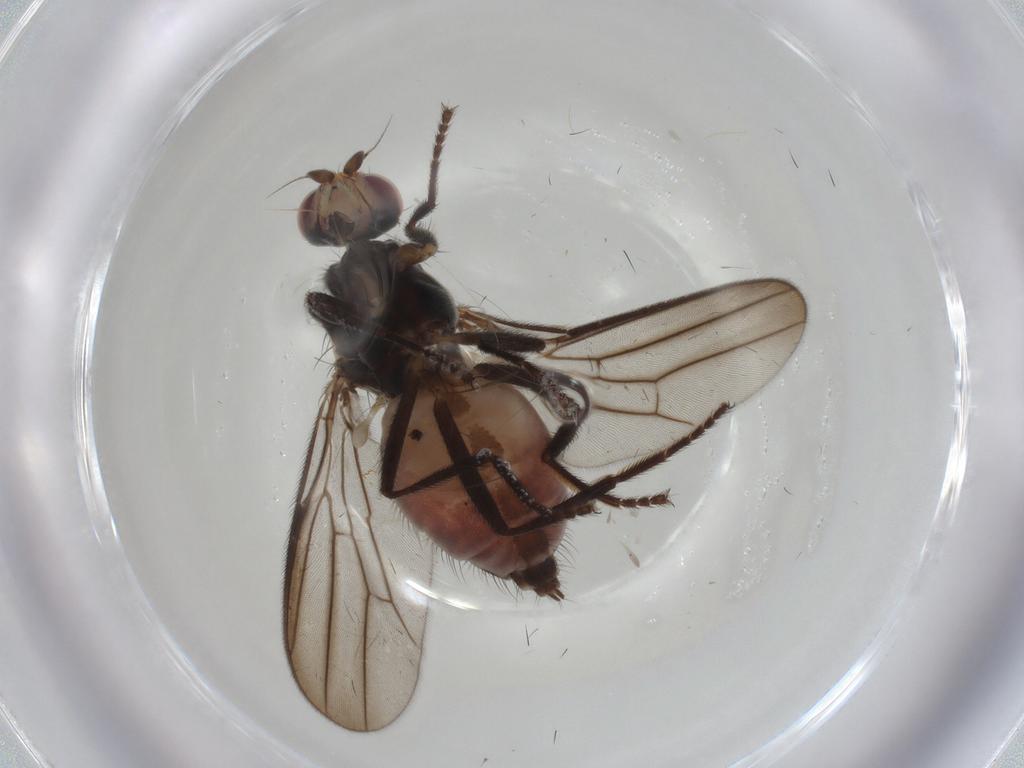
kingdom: Animalia
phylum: Arthropoda
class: Insecta
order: Diptera
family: Chloropidae
